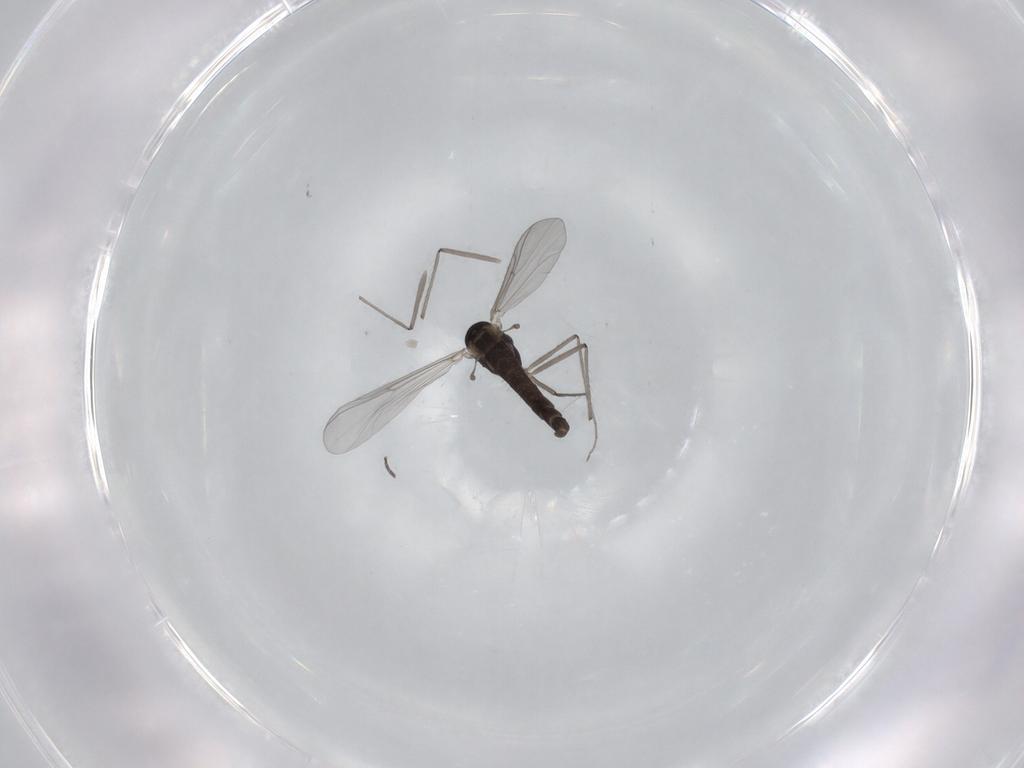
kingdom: Animalia
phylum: Arthropoda
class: Insecta
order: Diptera
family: Chironomidae
